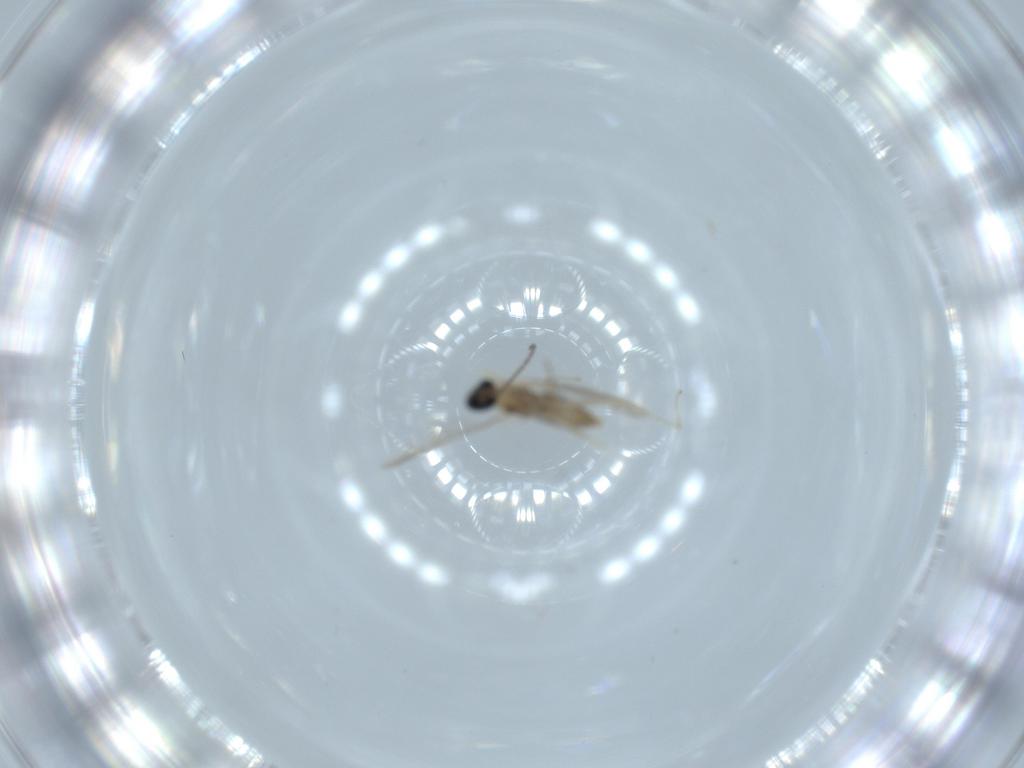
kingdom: Animalia
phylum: Arthropoda
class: Insecta
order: Diptera
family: Cecidomyiidae
